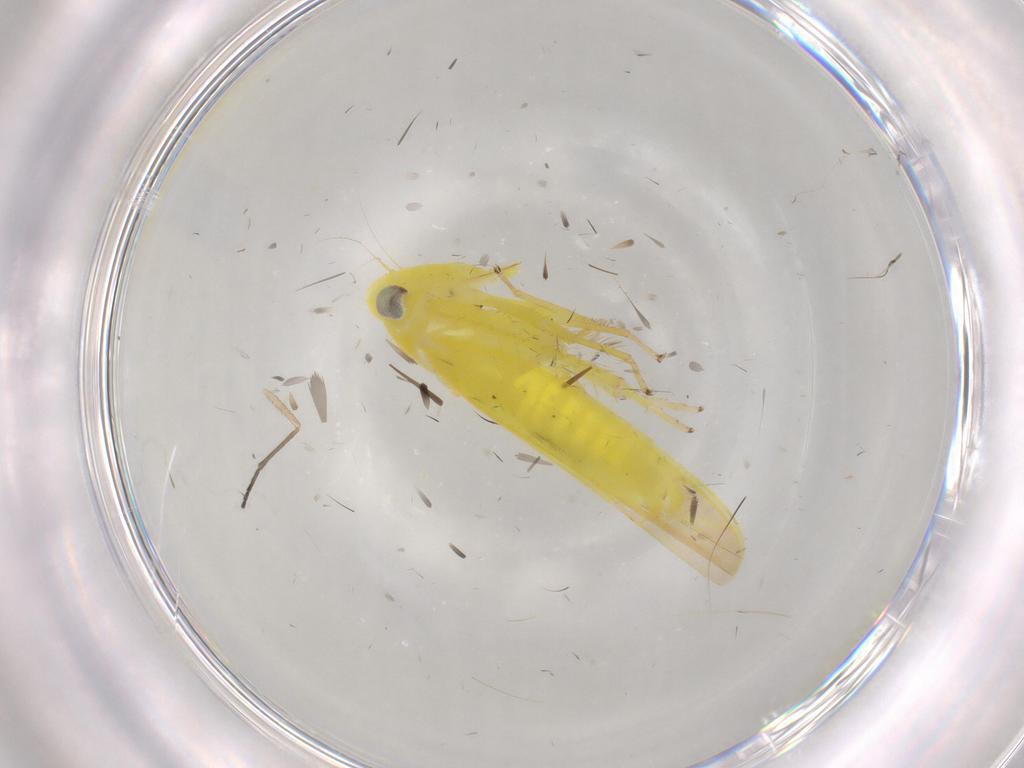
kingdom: Animalia
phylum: Arthropoda
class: Insecta
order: Hemiptera
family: Cicadellidae
